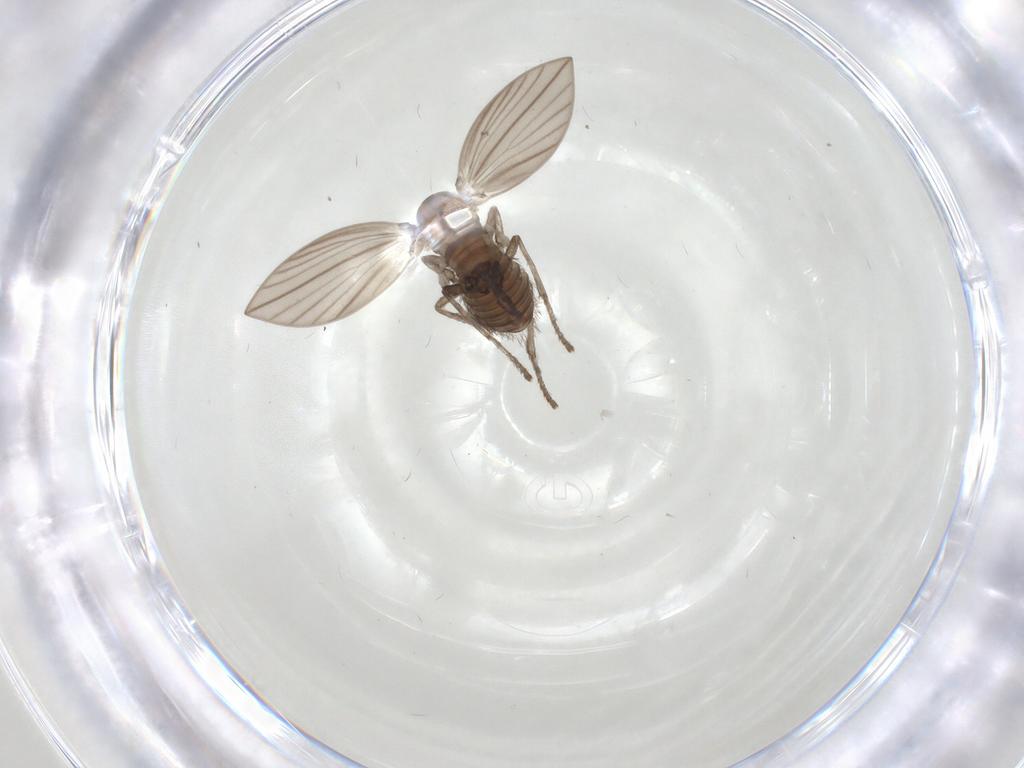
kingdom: Animalia
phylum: Arthropoda
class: Insecta
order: Diptera
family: Psychodidae
